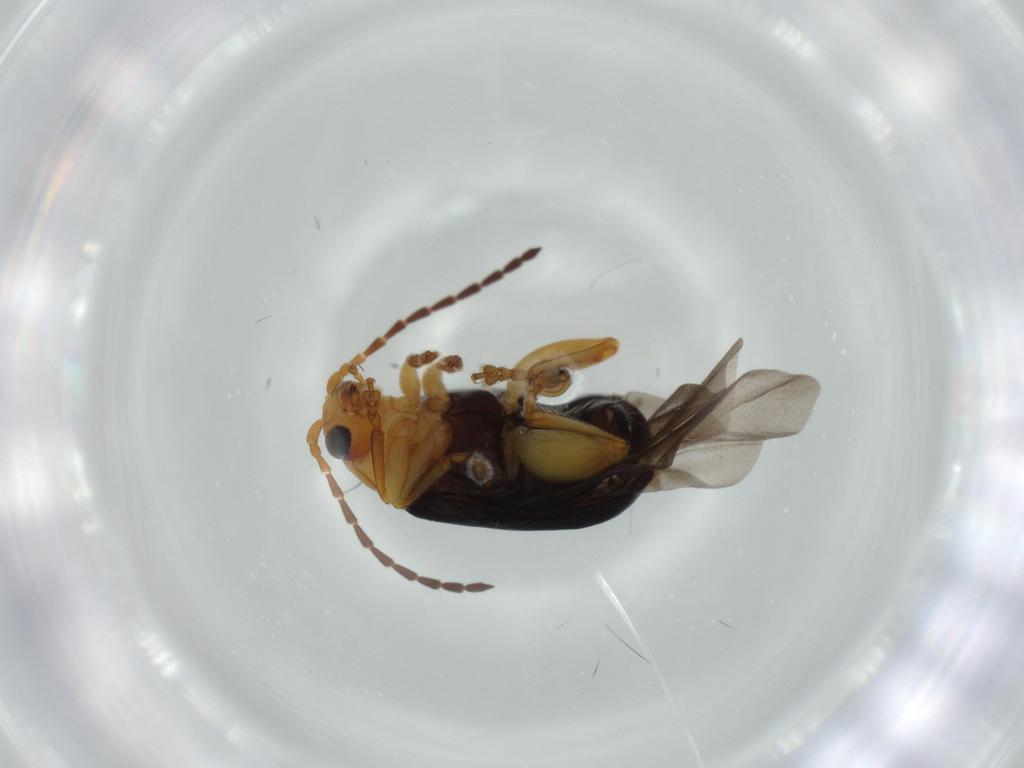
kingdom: Animalia
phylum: Arthropoda
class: Insecta
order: Coleoptera
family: Chrysomelidae
